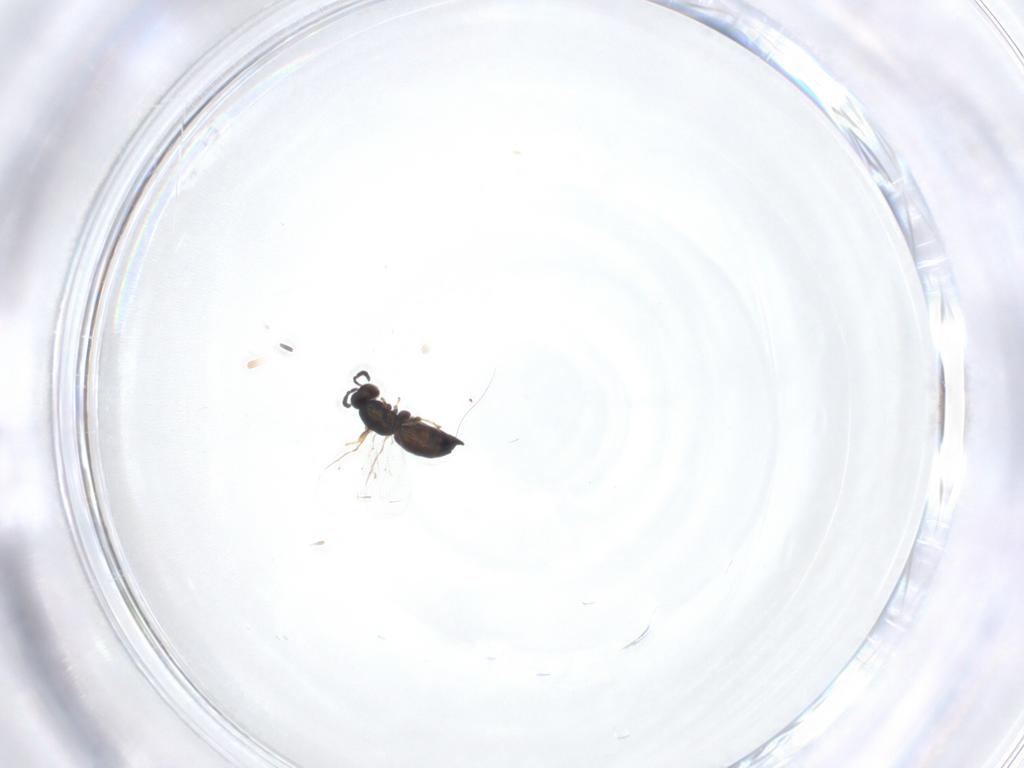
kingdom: Animalia
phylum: Arthropoda
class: Insecta
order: Hymenoptera
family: Pteromalidae
